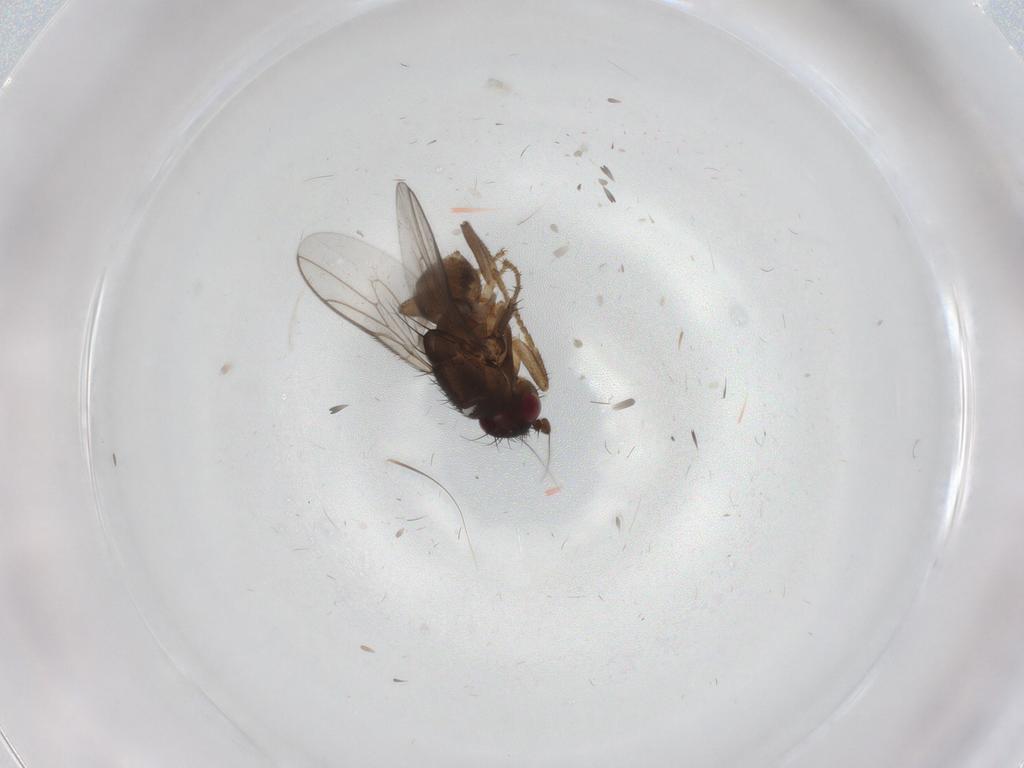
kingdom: Animalia
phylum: Arthropoda
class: Insecta
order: Diptera
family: Sphaeroceridae
